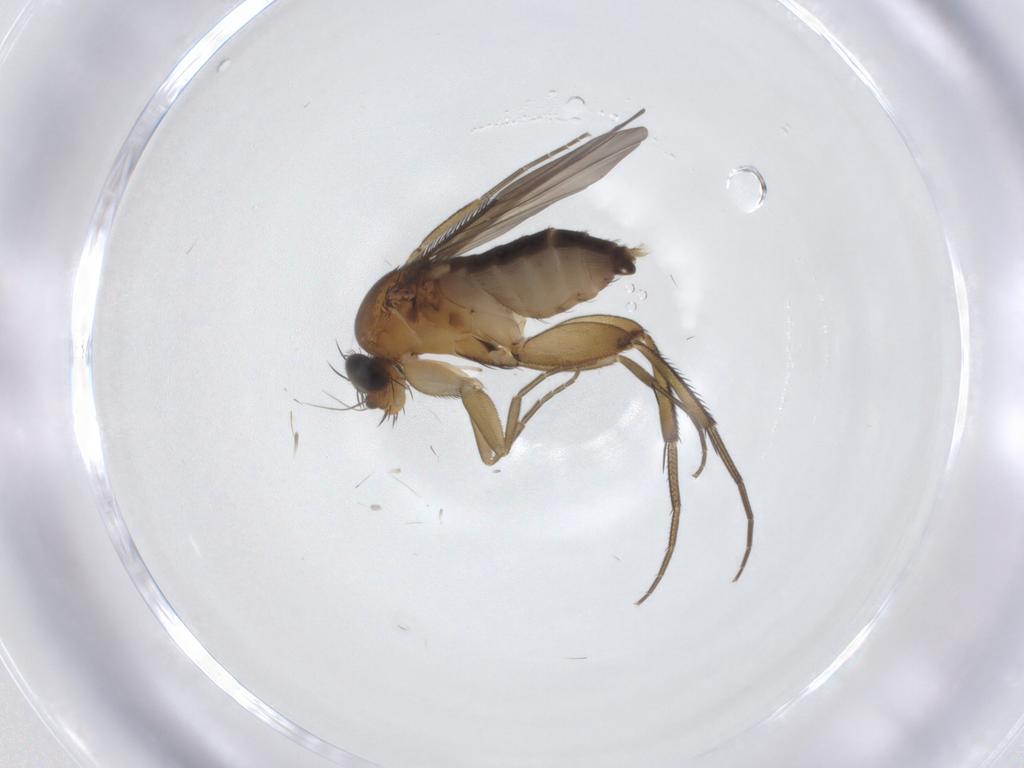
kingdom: Animalia
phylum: Arthropoda
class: Insecta
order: Diptera
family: Phoridae
